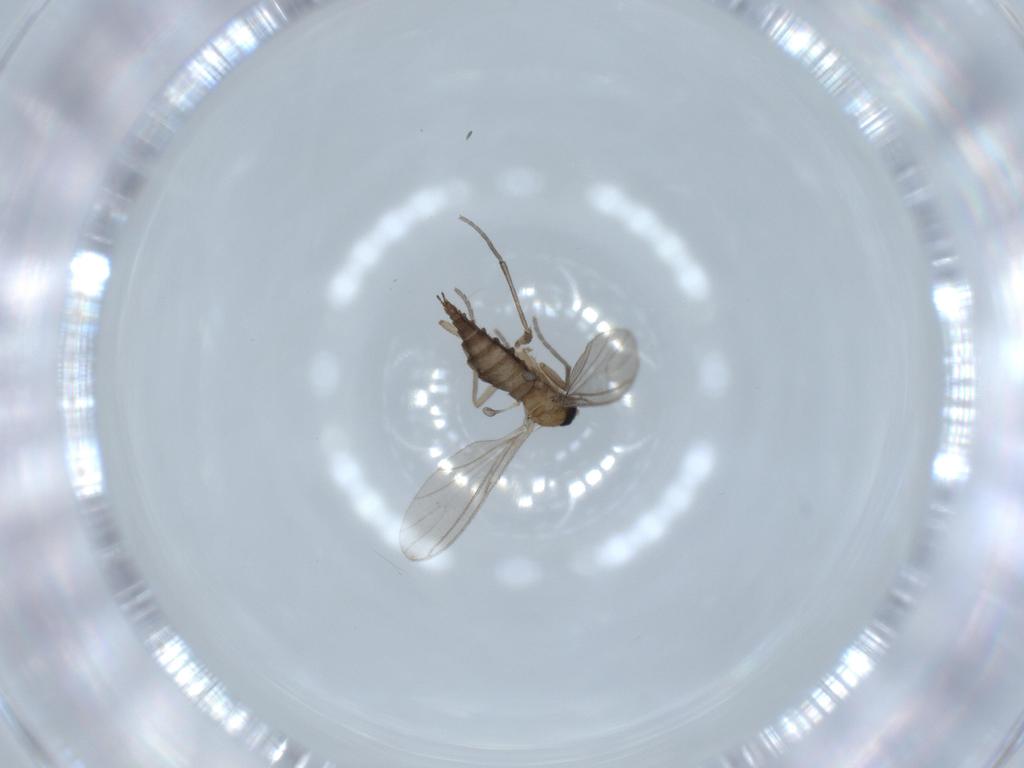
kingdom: Animalia
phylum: Arthropoda
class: Insecta
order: Diptera
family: Sciaridae
